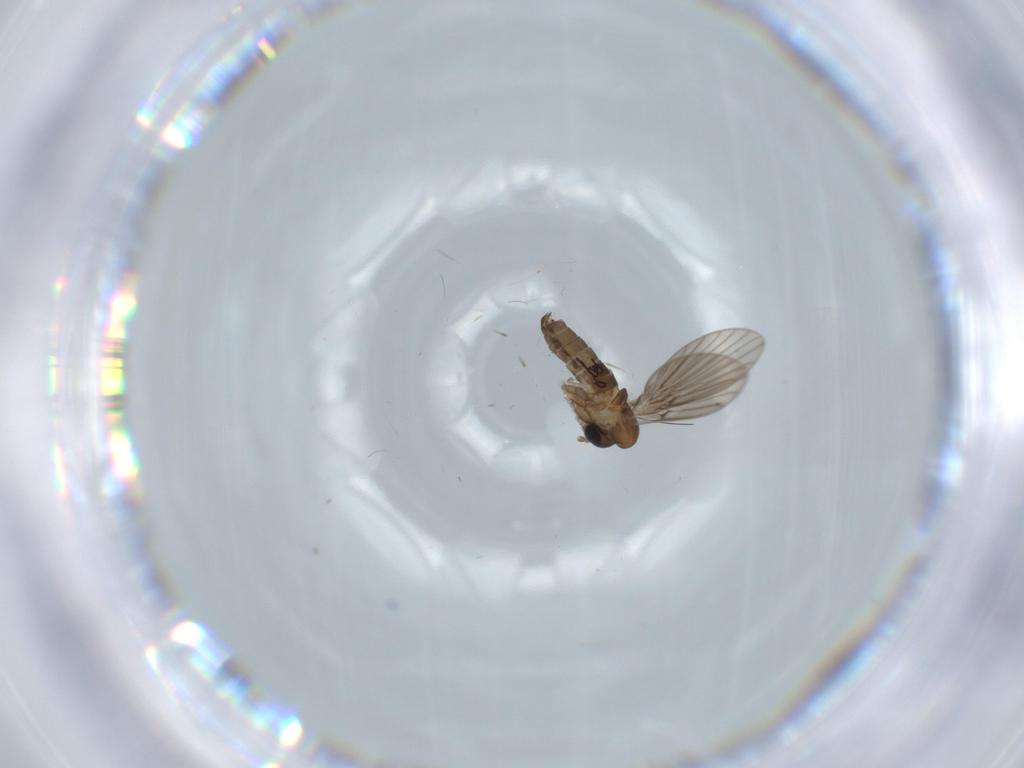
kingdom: Animalia
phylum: Arthropoda
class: Insecta
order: Diptera
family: Psychodidae
